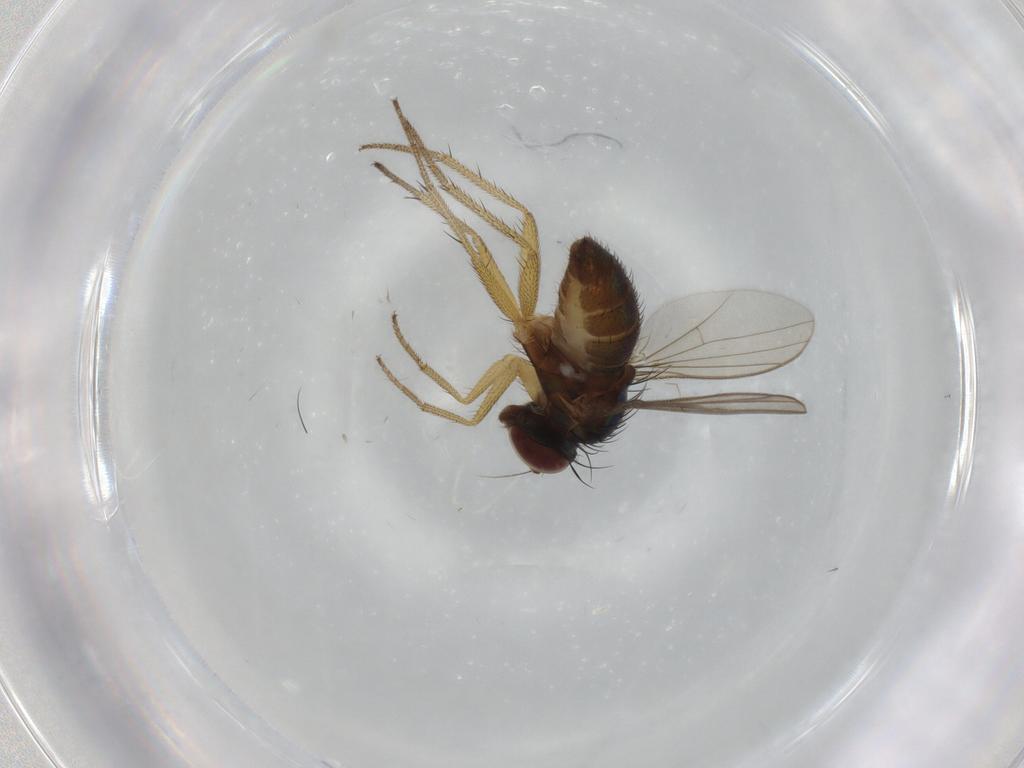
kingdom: Animalia
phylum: Arthropoda
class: Insecta
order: Diptera
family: Dolichopodidae
